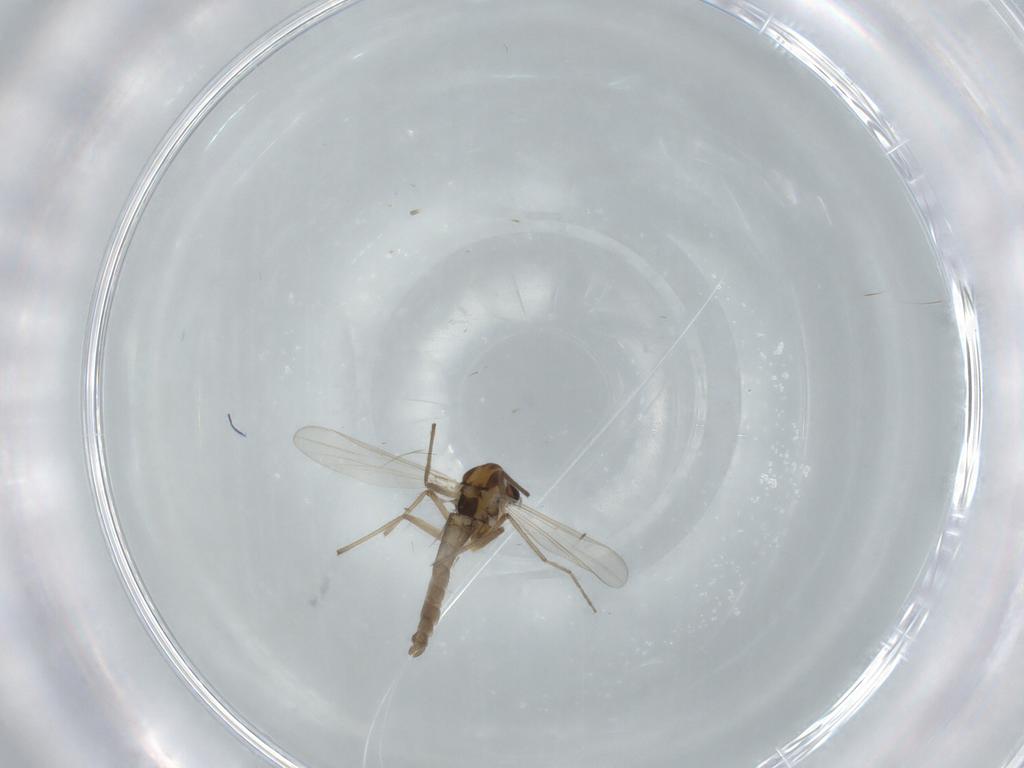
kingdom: Animalia
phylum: Arthropoda
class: Insecta
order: Diptera
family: Chironomidae
